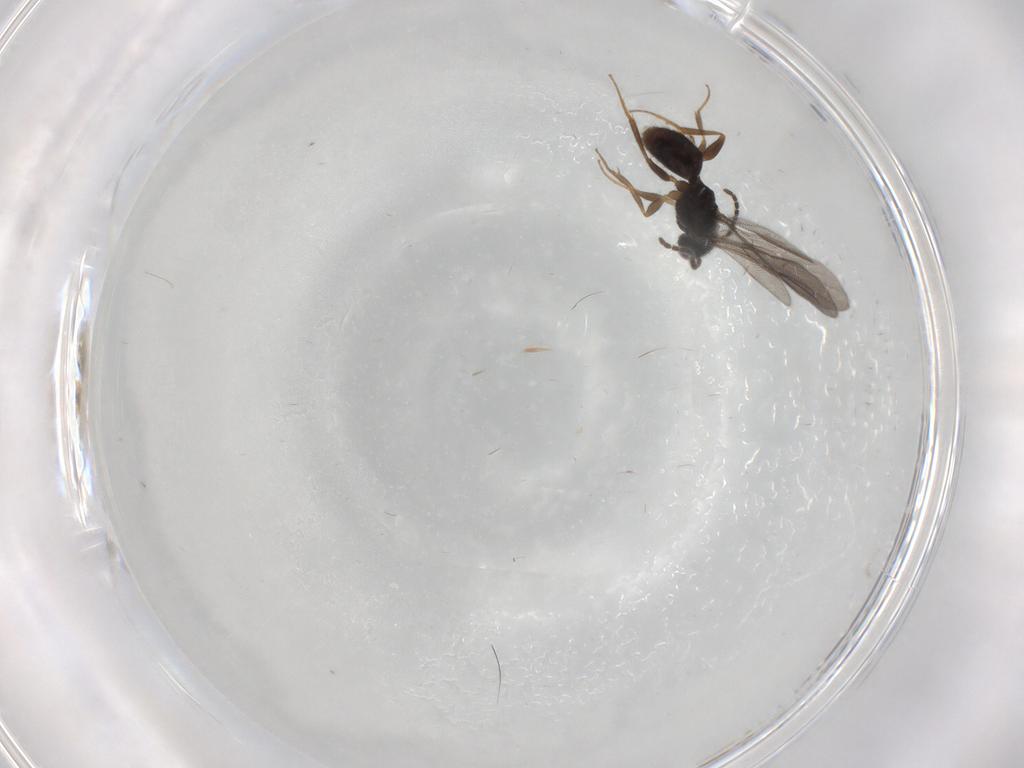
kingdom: Animalia
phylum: Arthropoda
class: Insecta
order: Hymenoptera
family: Bethylidae
